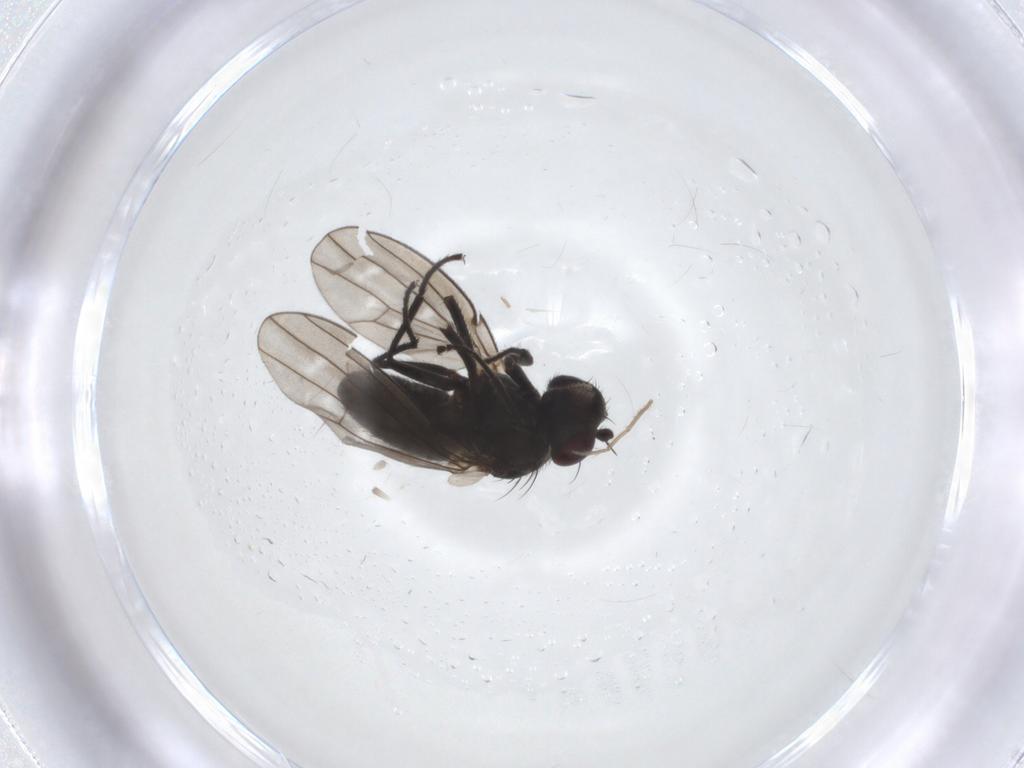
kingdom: Animalia
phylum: Arthropoda
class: Insecta
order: Diptera
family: Ephydridae
